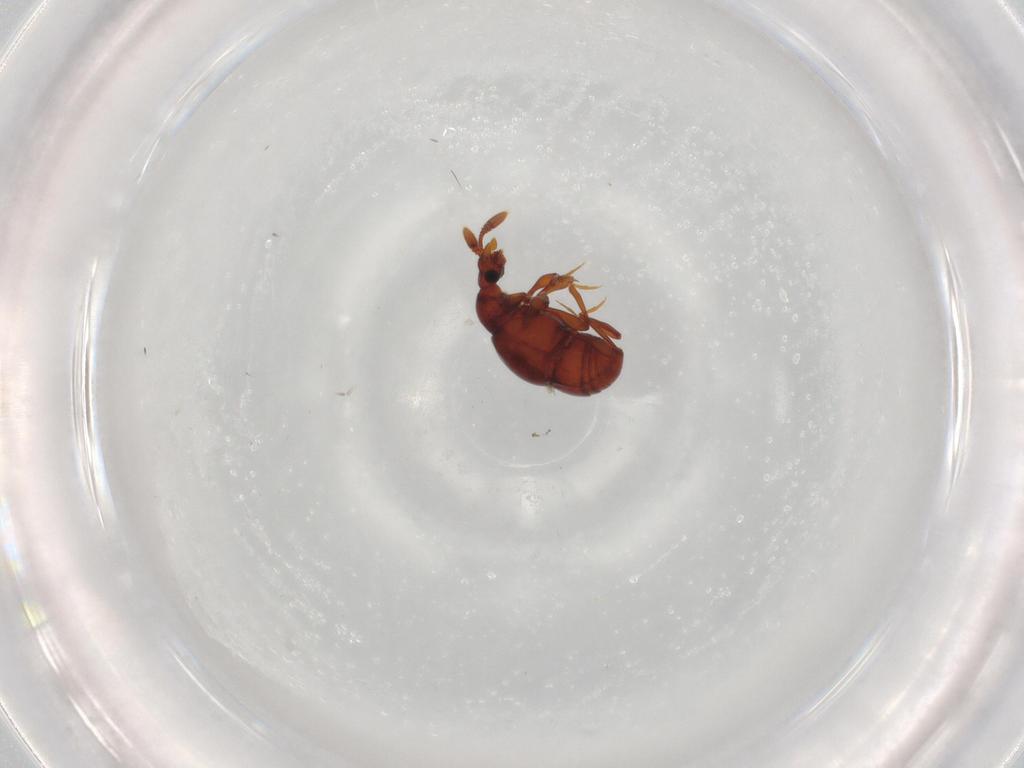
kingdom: Animalia
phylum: Arthropoda
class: Insecta
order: Coleoptera
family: Staphylinidae
